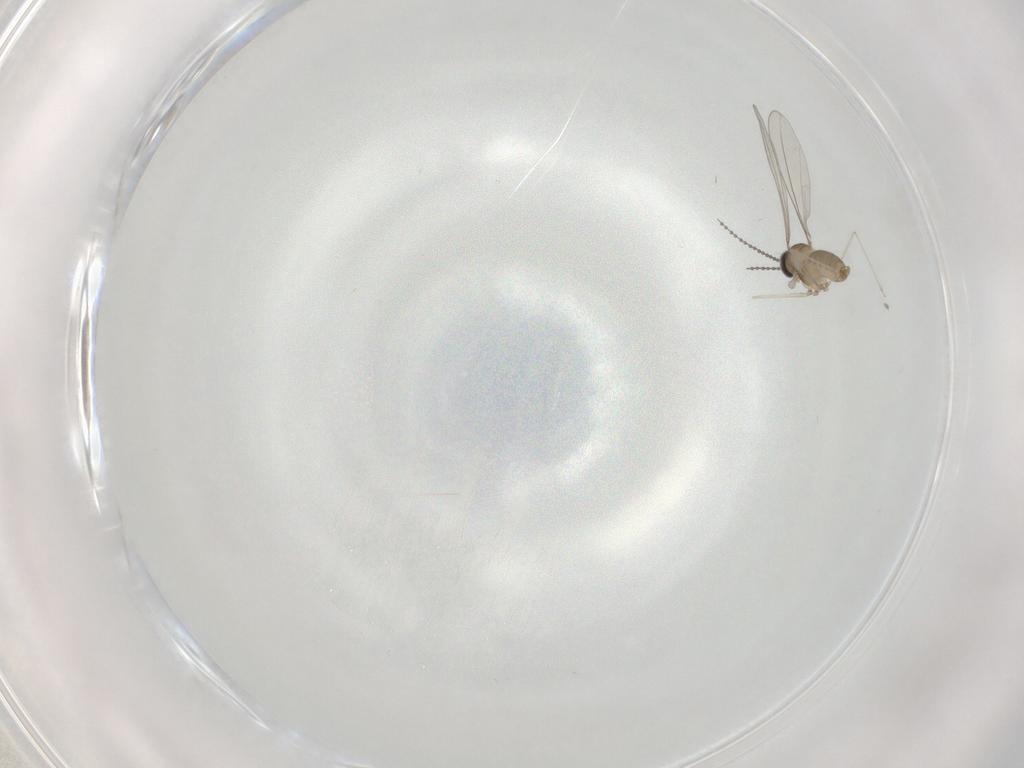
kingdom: Animalia
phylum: Arthropoda
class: Insecta
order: Diptera
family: Cecidomyiidae
